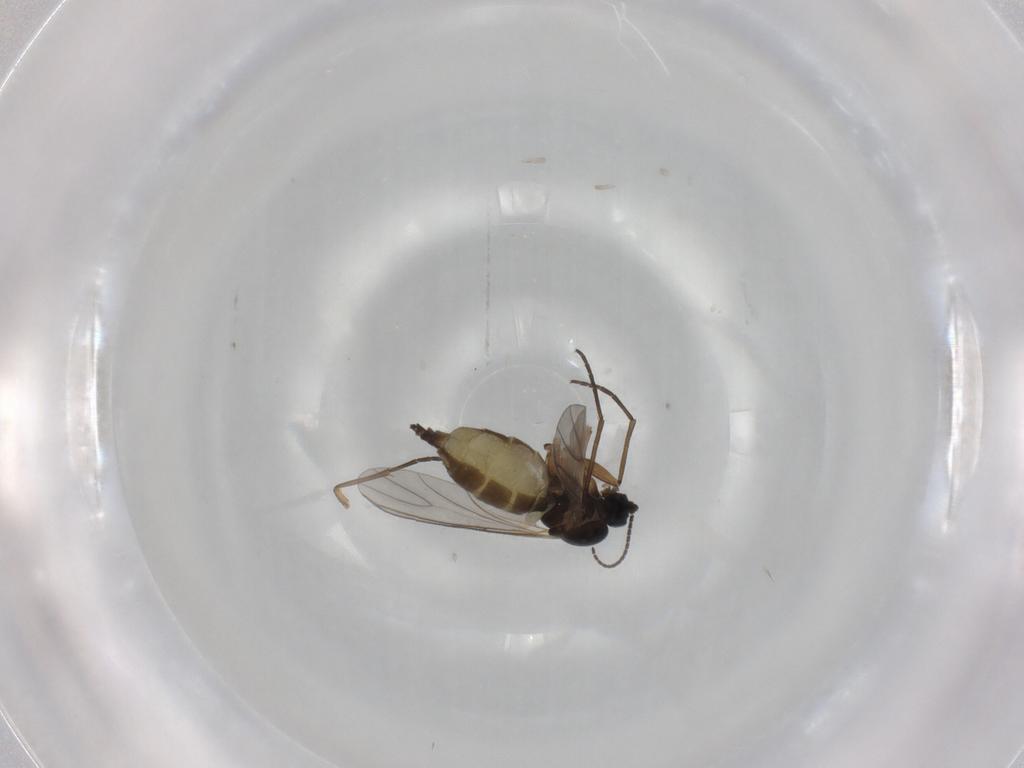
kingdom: Animalia
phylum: Arthropoda
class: Insecta
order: Diptera
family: Sciaridae
